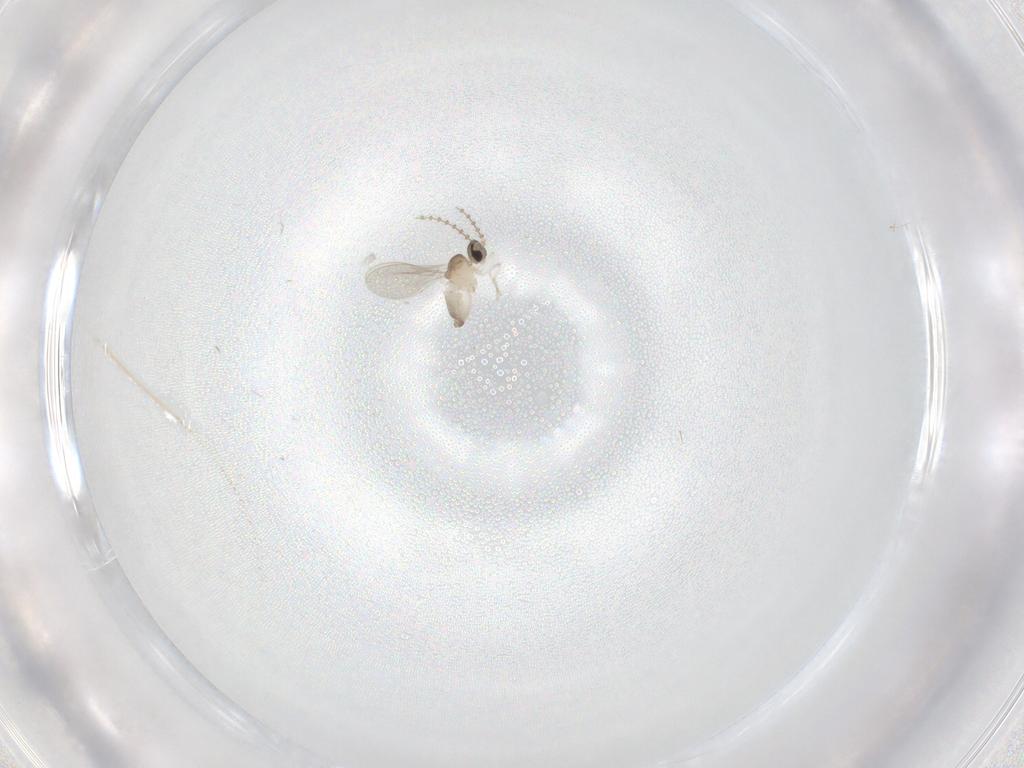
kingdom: Animalia
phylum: Arthropoda
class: Insecta
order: Diptera
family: Cecidomyiidae
